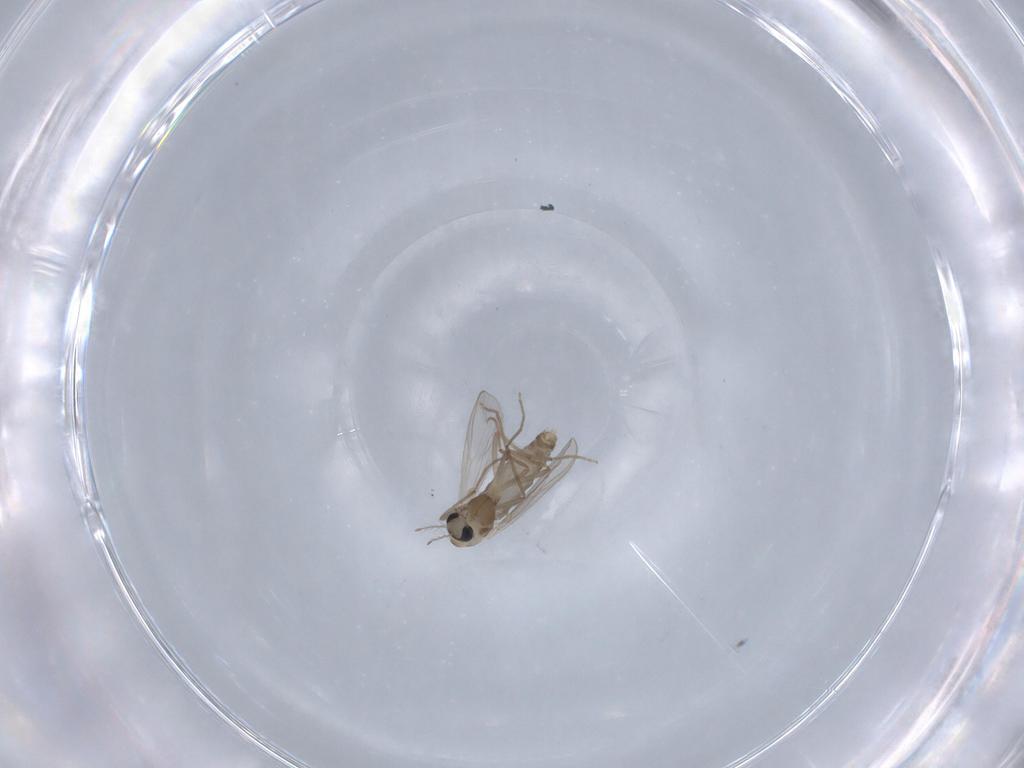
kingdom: Animalia
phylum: Arthropoda
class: Insecta
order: Diptera
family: Chironomidae
